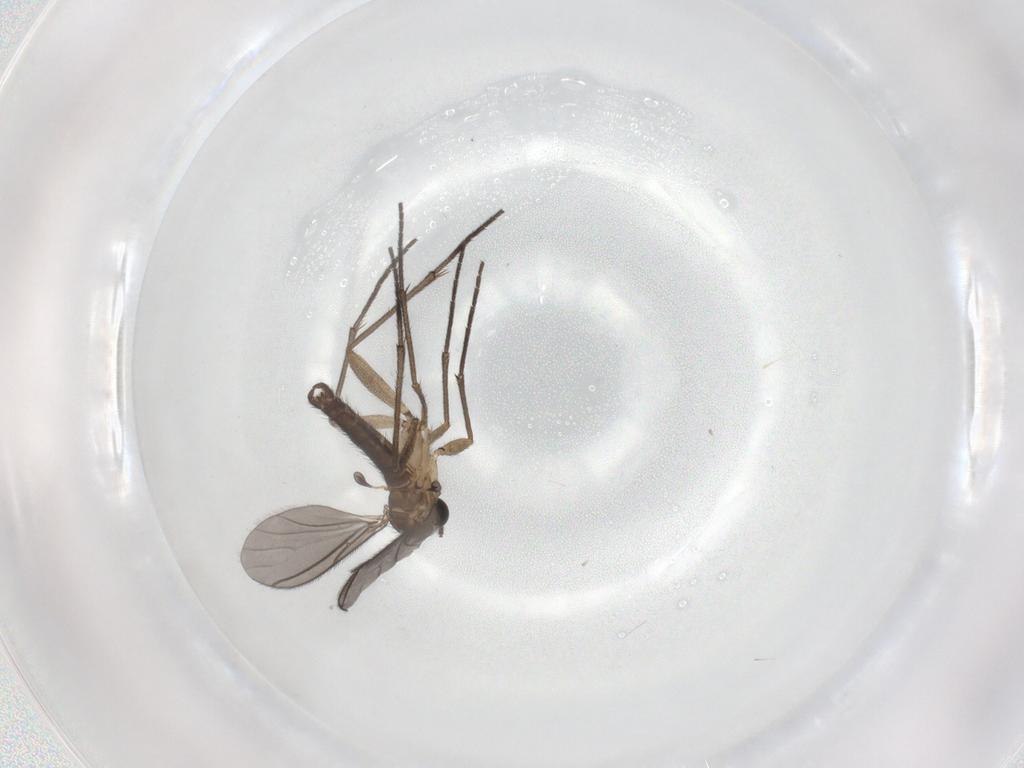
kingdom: Animalia
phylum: Arthropoda
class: Insecta
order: Diptera
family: Sciaridae
